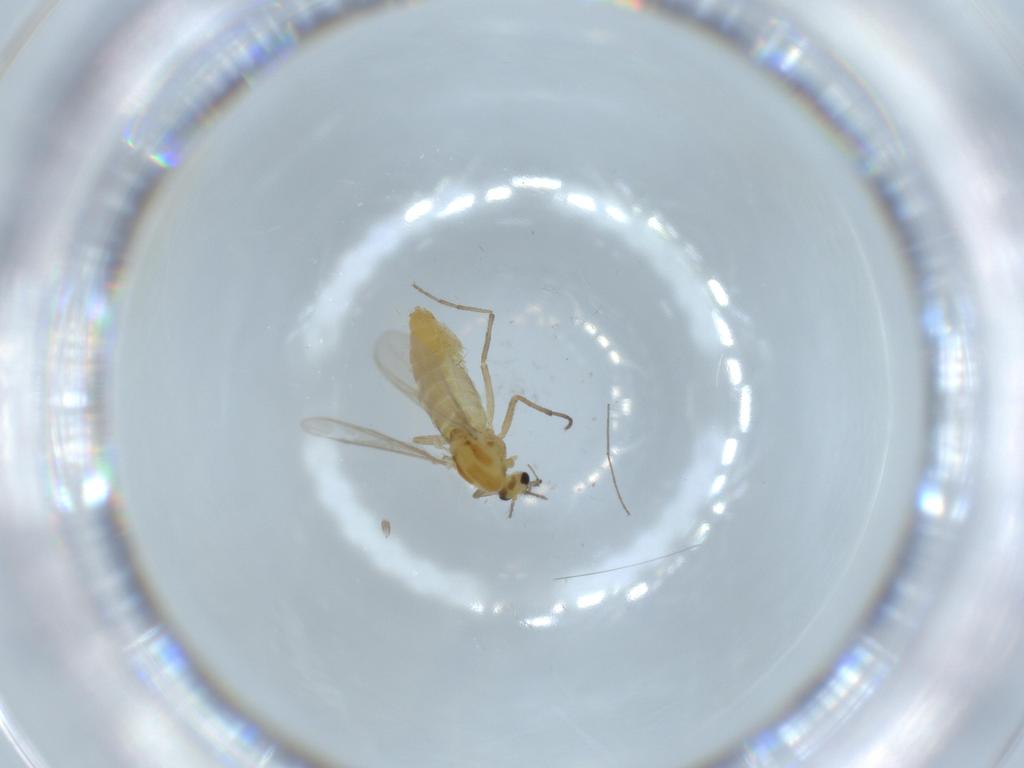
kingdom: Animalia
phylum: Arthropoda
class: Insecta
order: Diptera
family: Chironomidae
